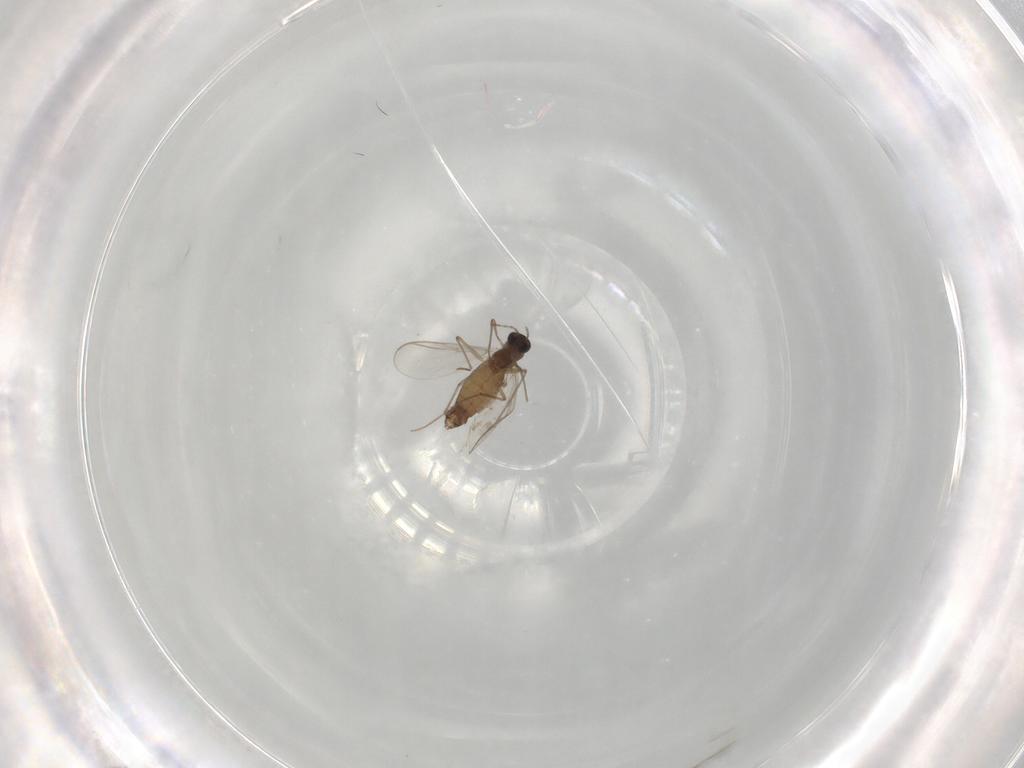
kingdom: Animalia
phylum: Arthropoda
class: Insecta
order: Diptera
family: Chironomidae
